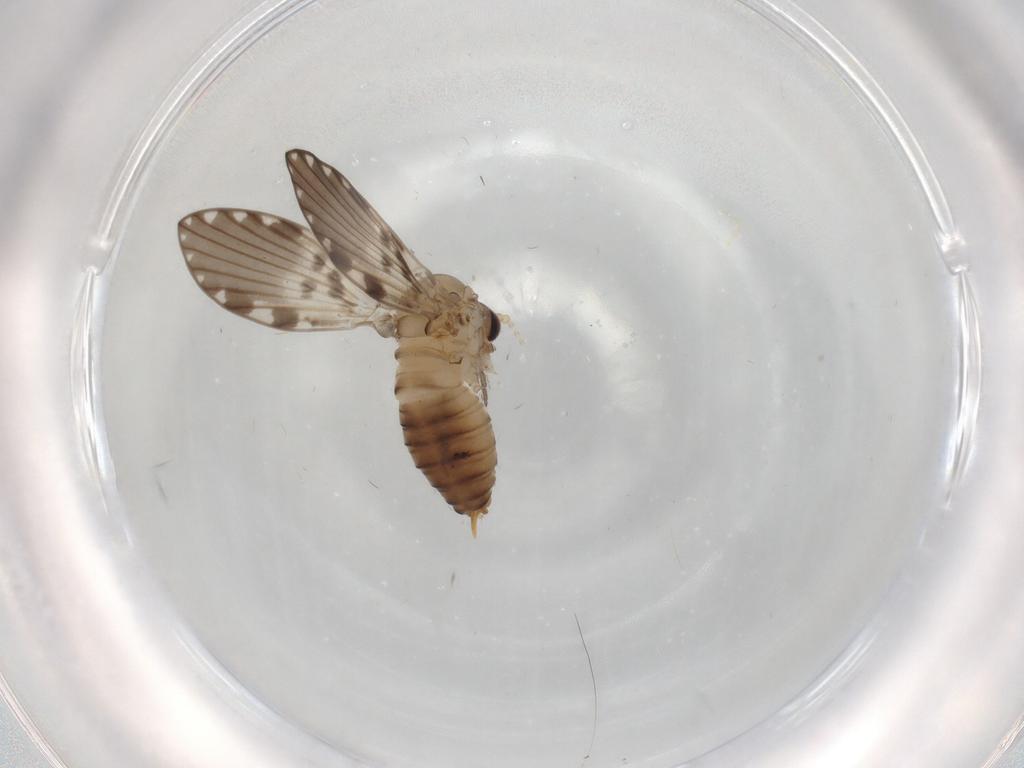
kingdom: Animalia
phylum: Arthropoda
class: Insecta
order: Diptera
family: Psychodidae
